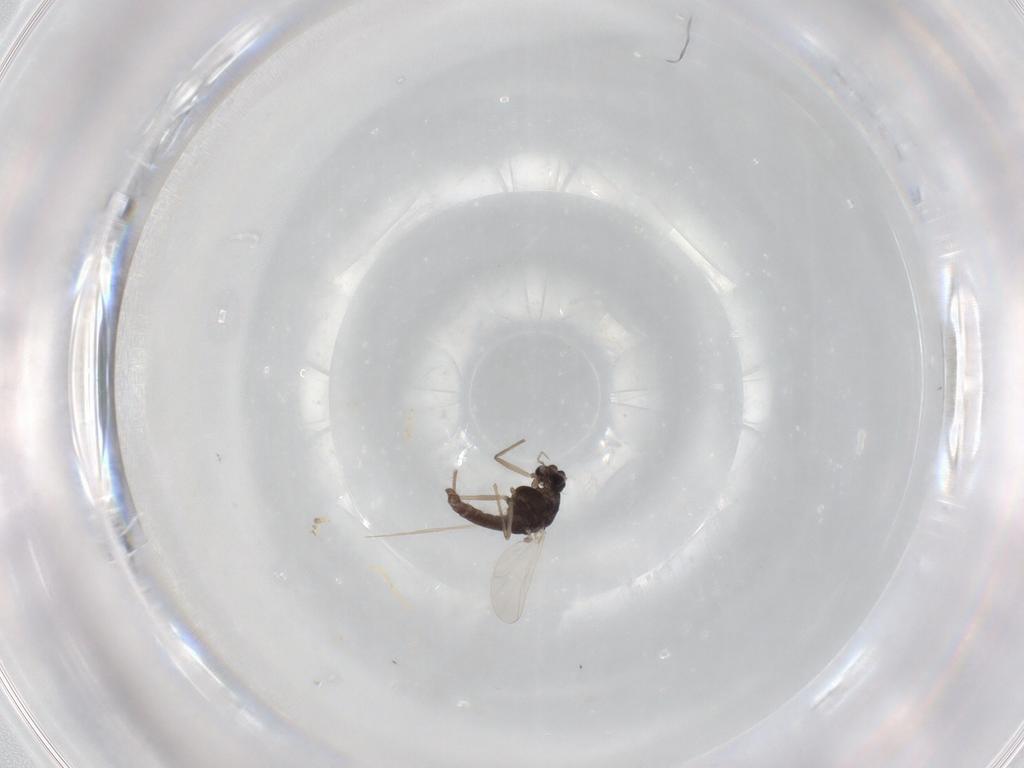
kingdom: Animalia
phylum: Arthropoda
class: Insecta
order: Diptera
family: Chironomidae
